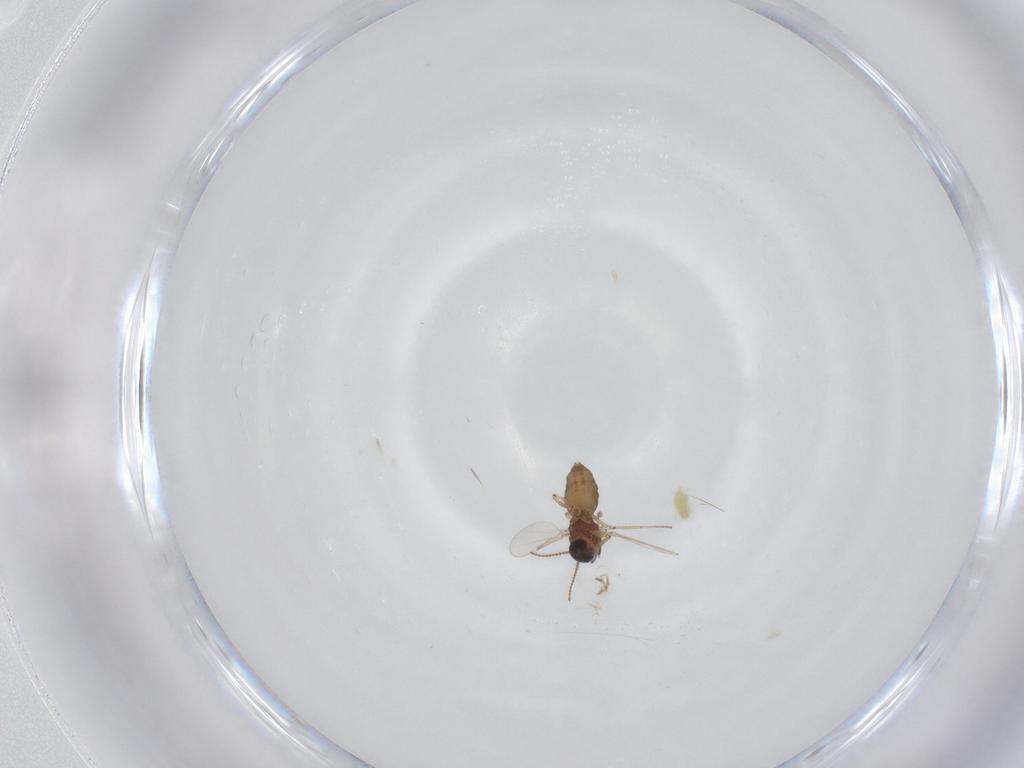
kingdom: Animalia
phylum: Arthropoda
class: Insecta
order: Diptera
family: Ceratopogonidae
